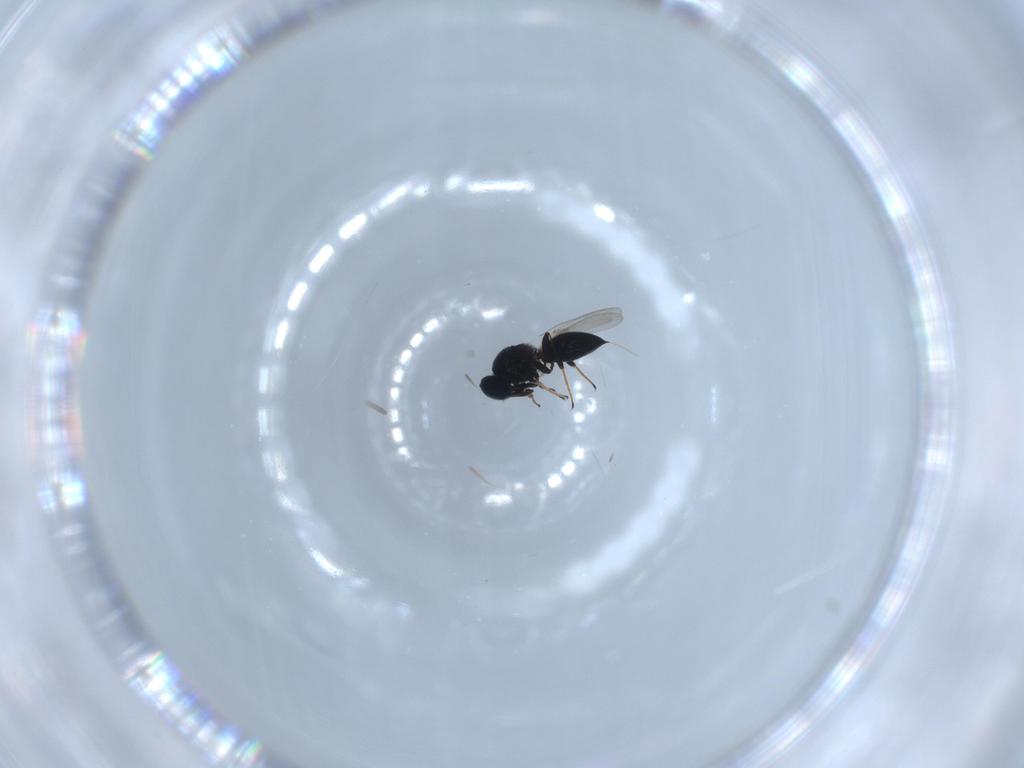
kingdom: Animalia
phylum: Arthropoda
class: Insecta
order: Hymenoptera
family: Platygastridae
